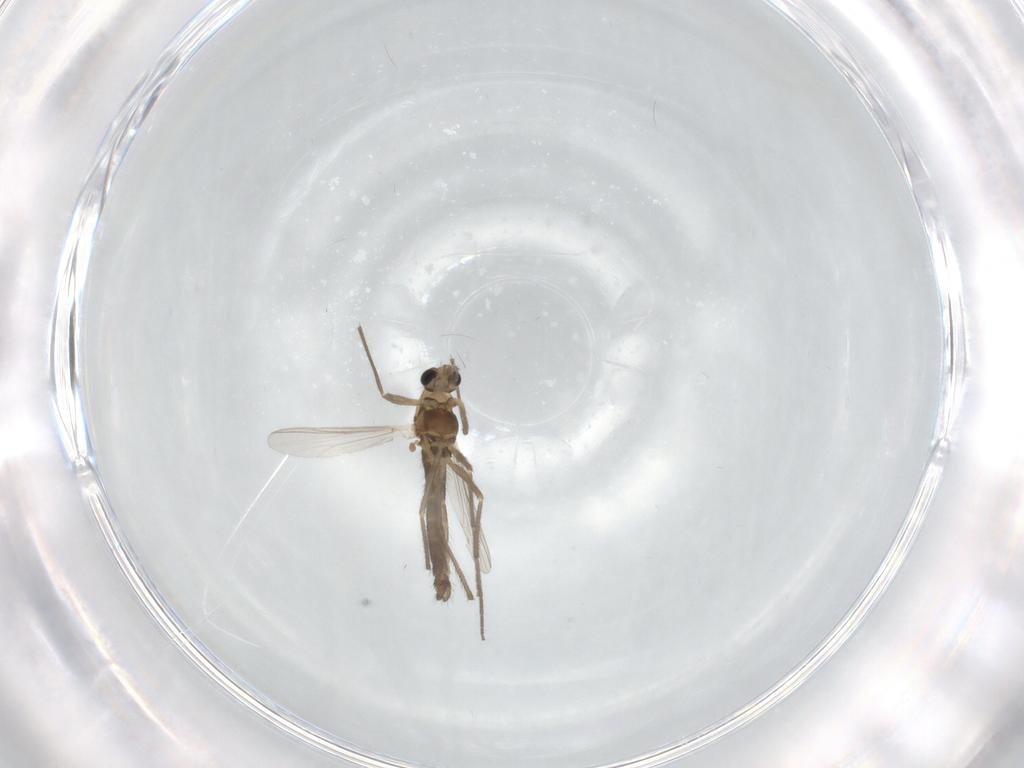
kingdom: Animalia
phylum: Arthropoda
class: Insecta
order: Diptera
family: Chironomidae
